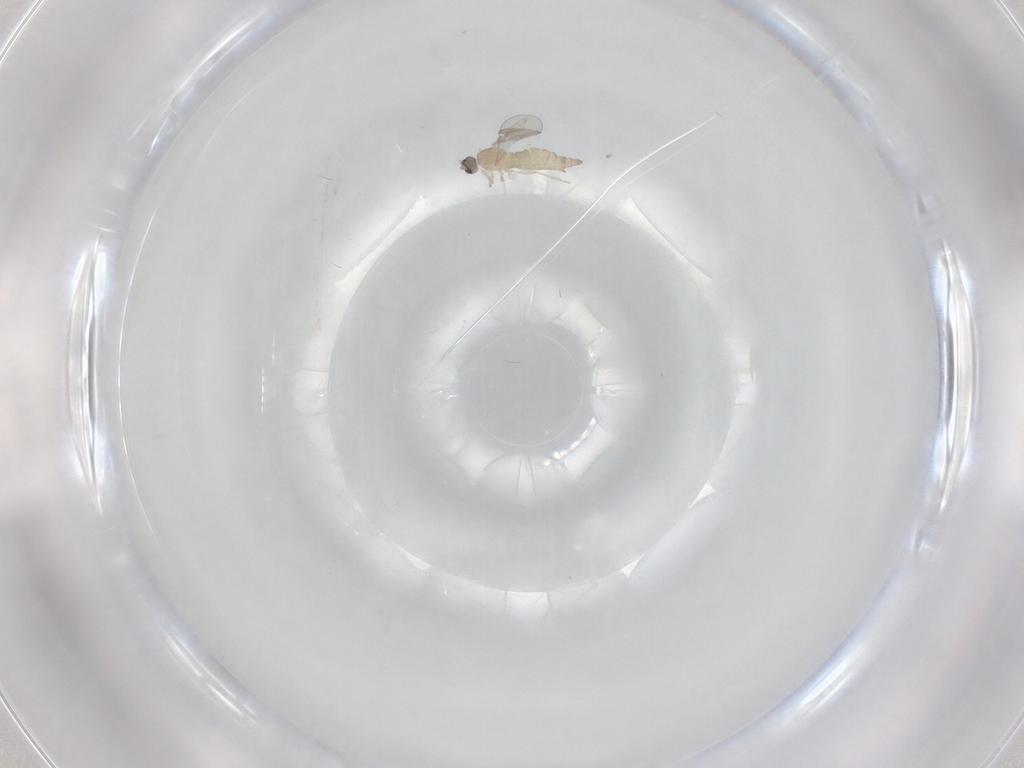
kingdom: Animalia
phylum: Arthropoda
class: Insecta
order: Diptera
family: Cecidomyiidae
